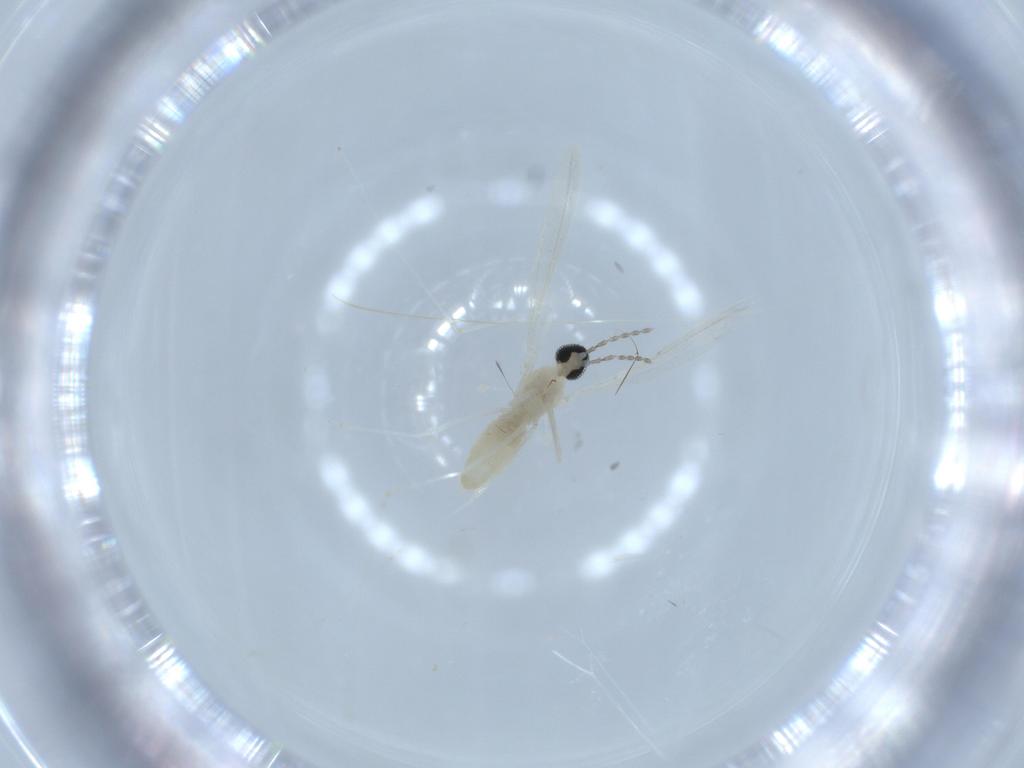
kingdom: Animalia
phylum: Arthropoda
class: Insecta
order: Diptera
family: Cecidomyiidae
